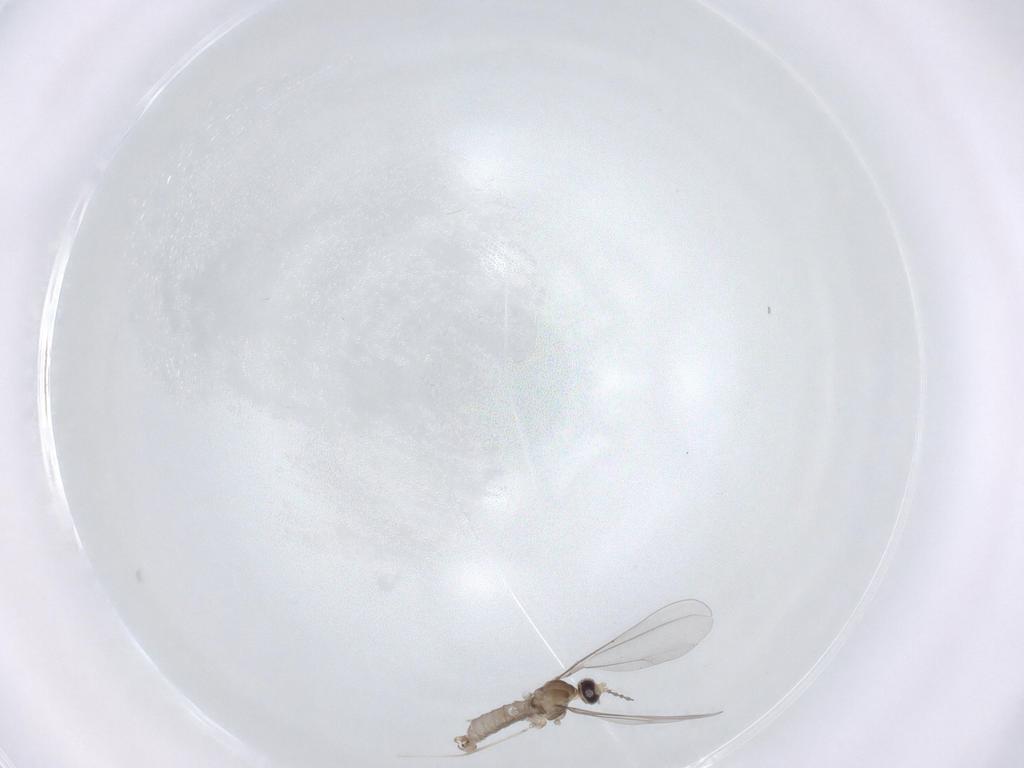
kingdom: Animalia
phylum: Arthropoda
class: Insecta
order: Diptera
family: Cecidomyiidae
